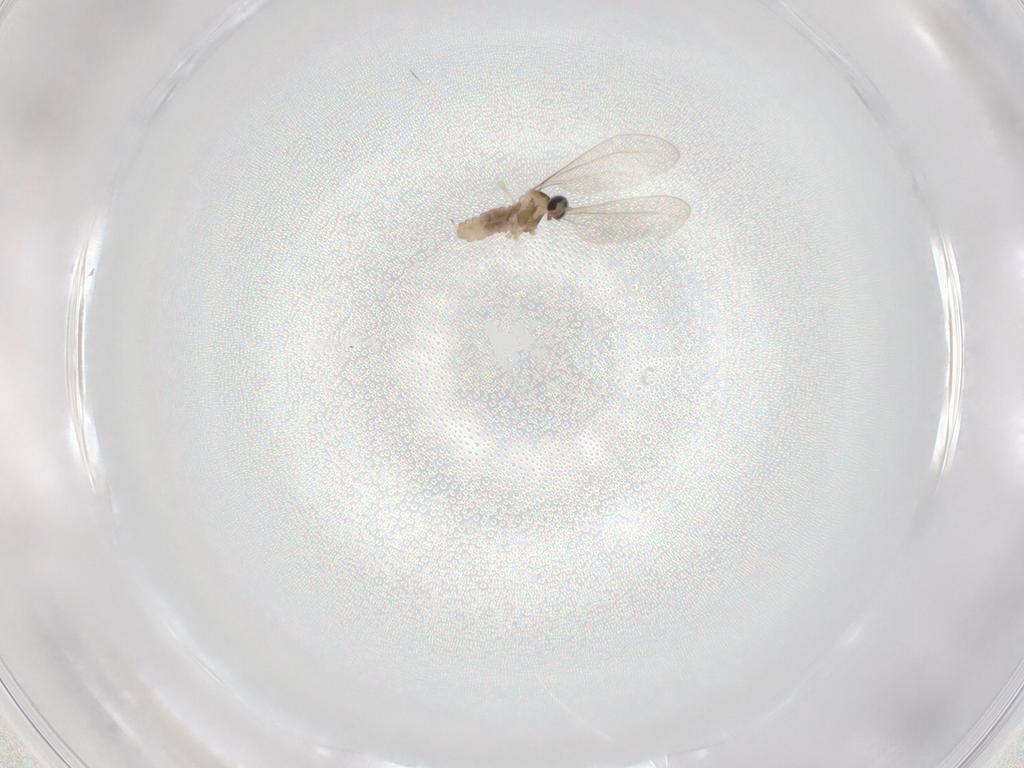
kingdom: Animalia
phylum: Arthropoda
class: Insecta
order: Diptera
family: Cecidomyiidae
